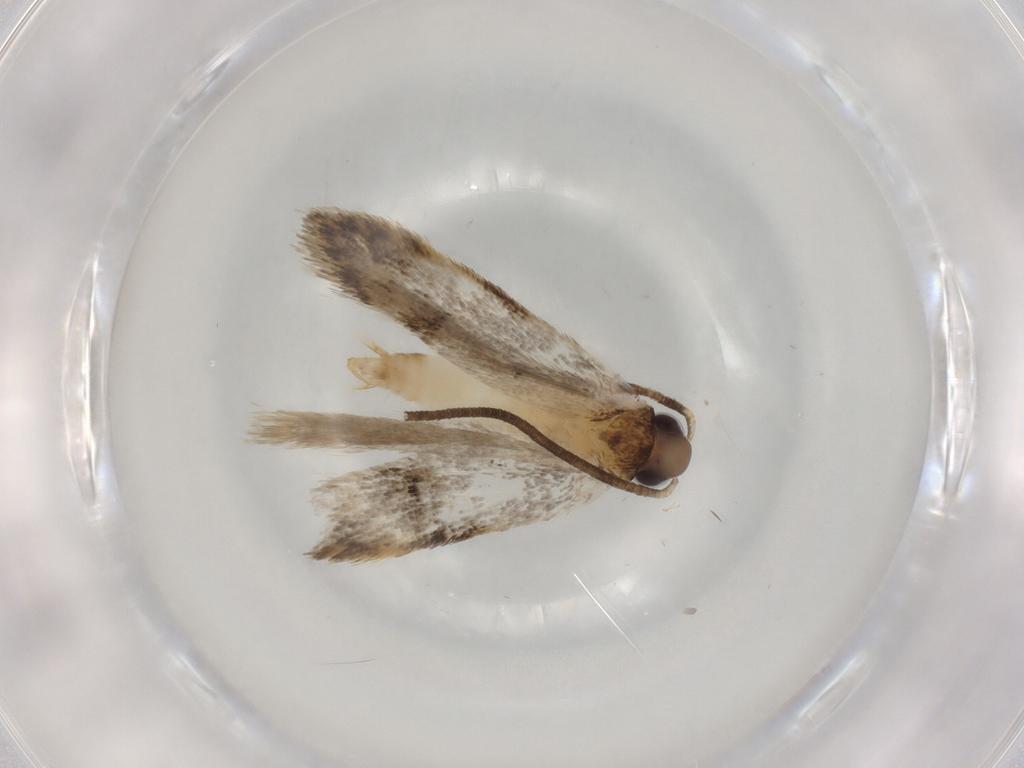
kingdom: Animalia
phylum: Arthropoda
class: Insecta
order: Lepidoptera
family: Autostichidae
